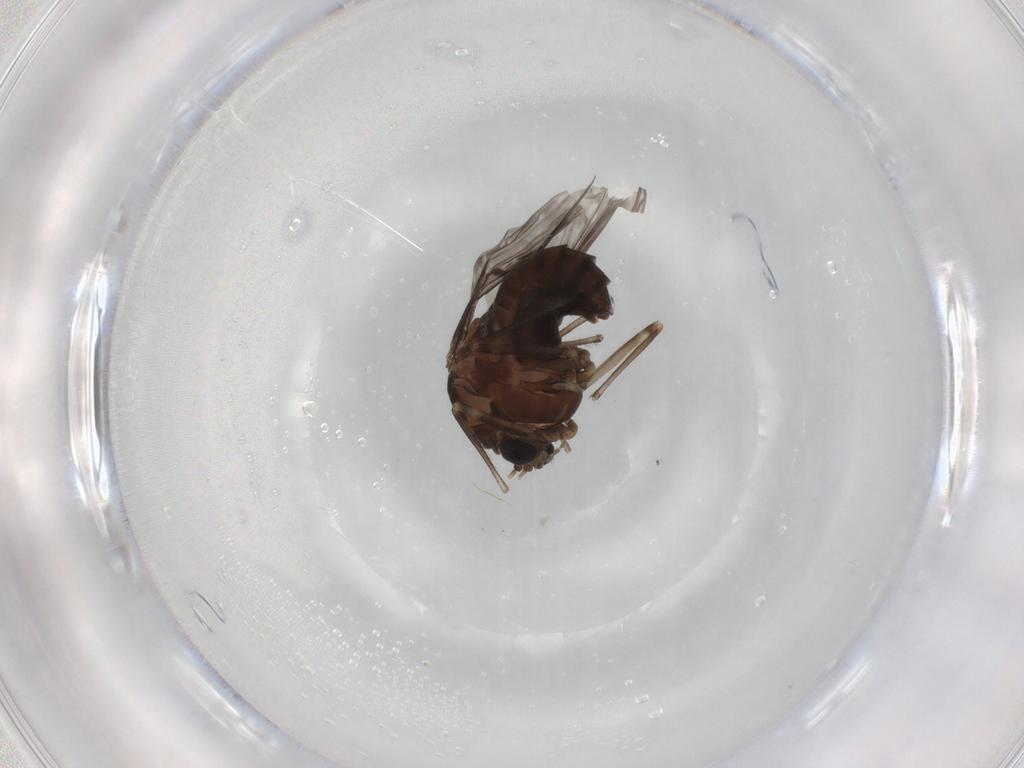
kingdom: Animalia
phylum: Arthropoda
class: Insecta
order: Diptera
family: Chironomidae
